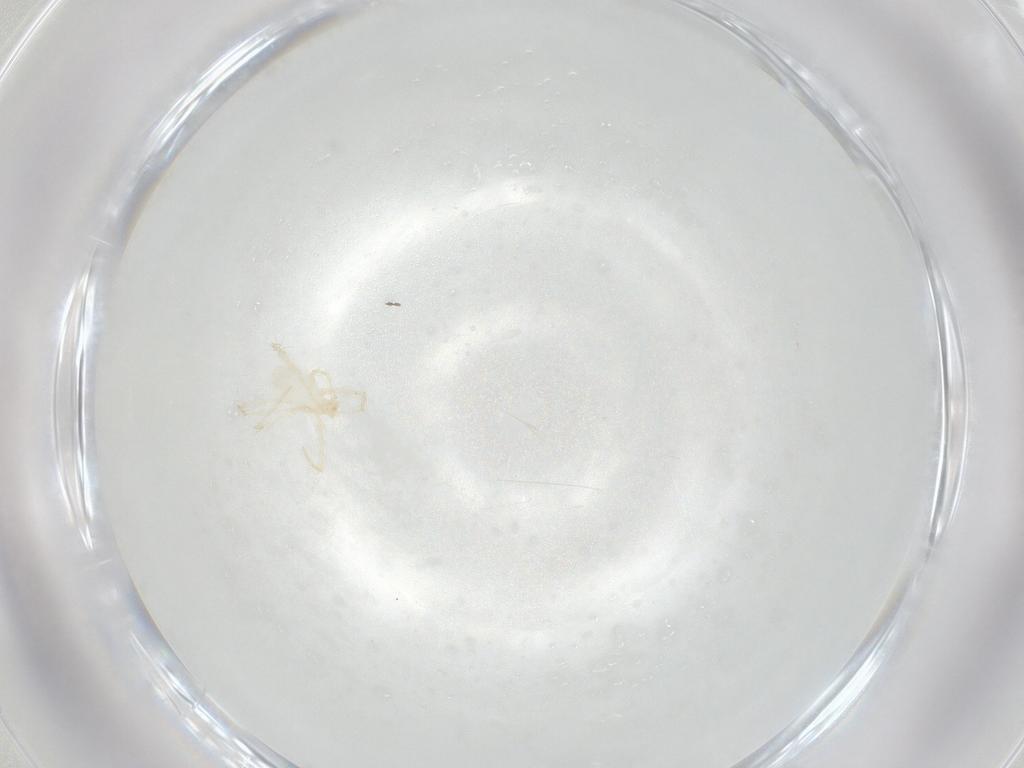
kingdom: Animalia
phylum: Arthropoda
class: Arachnida
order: Trombidiformes
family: Erythraeidae
